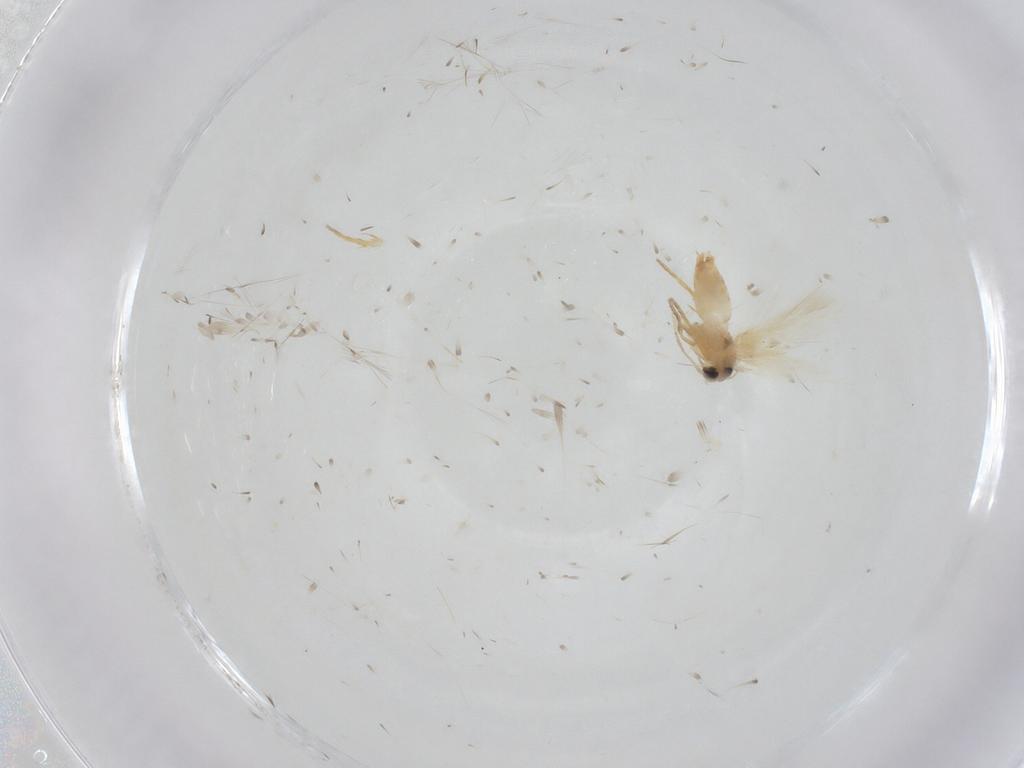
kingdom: Animalia
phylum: Arthropoda
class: Insecta
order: Lepidoptera
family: Crambidae
